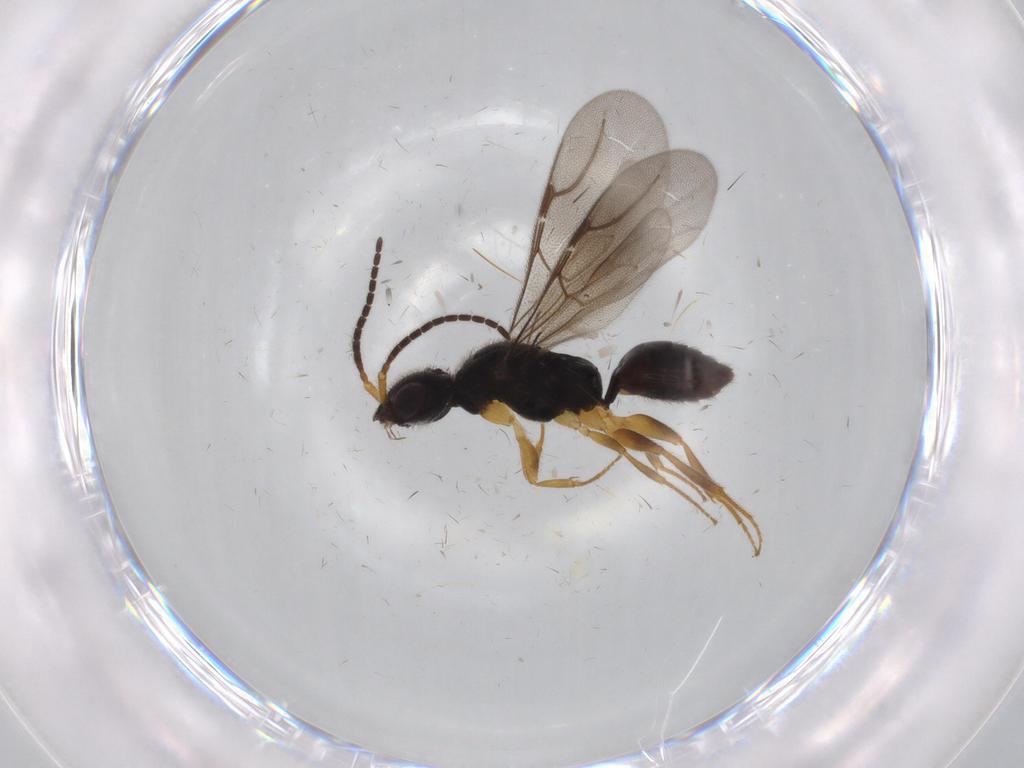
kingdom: Animalia
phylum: Arthropoda
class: Insecta
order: Hymenoptera
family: Bethylidae
